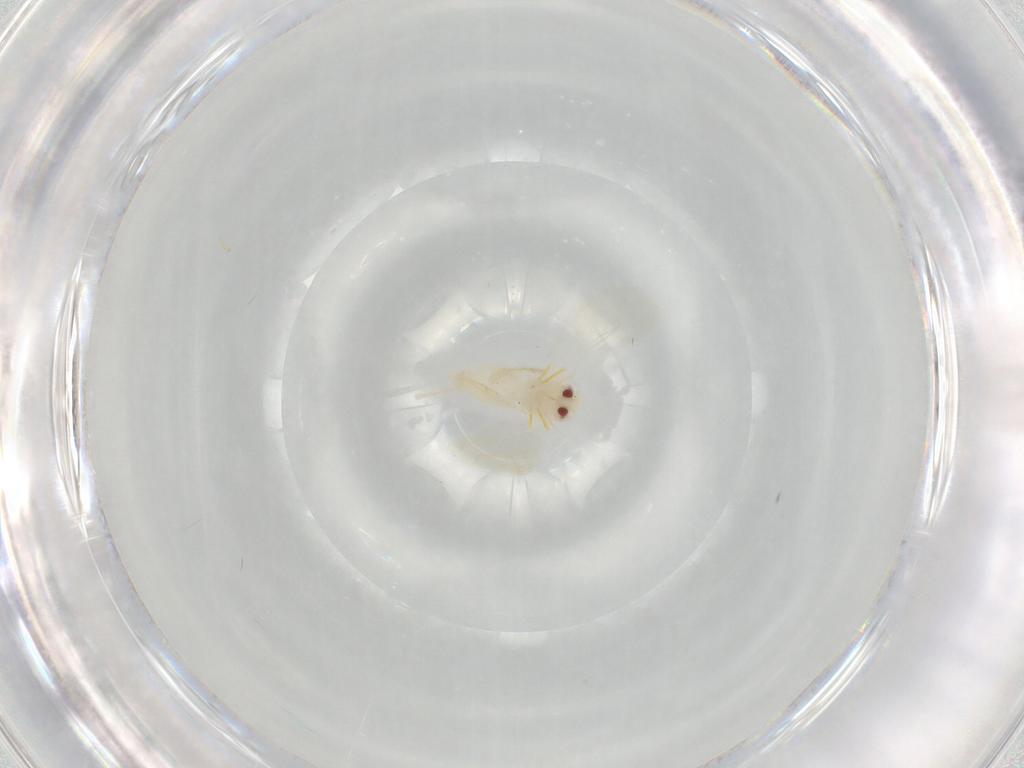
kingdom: Animalia
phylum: Arthropoda
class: Insecta
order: Hemiptera
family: Aleyrodidae
